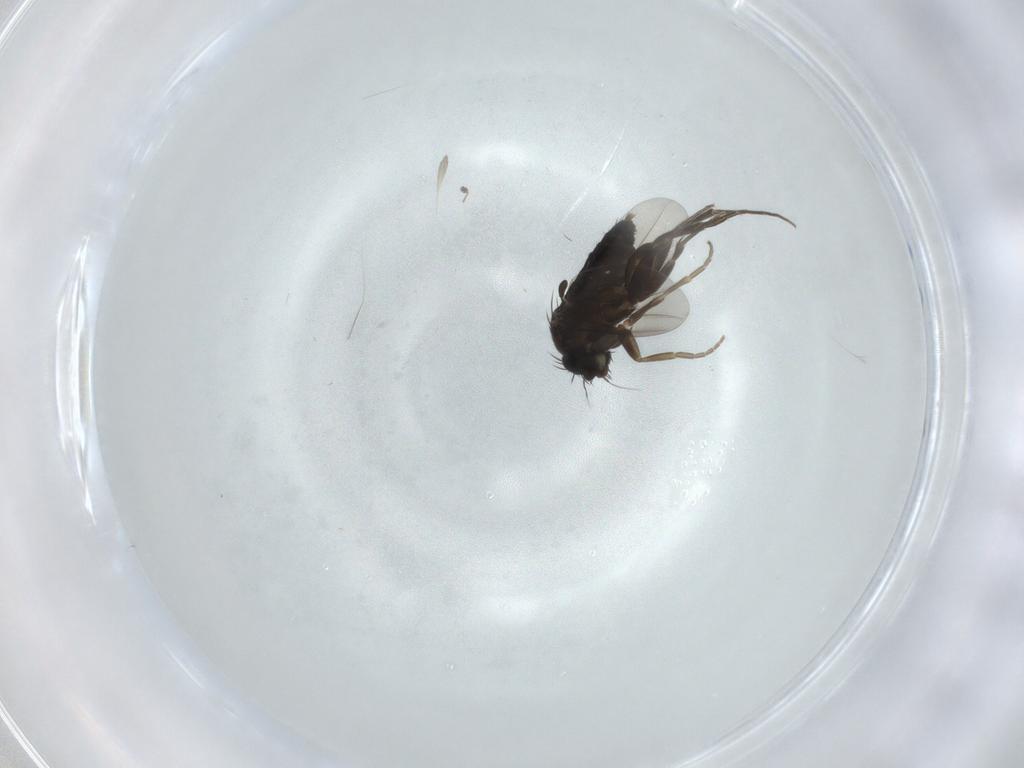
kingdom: Animalia
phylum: Arthropoda
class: Insecta
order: Diptera
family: Phoridae
